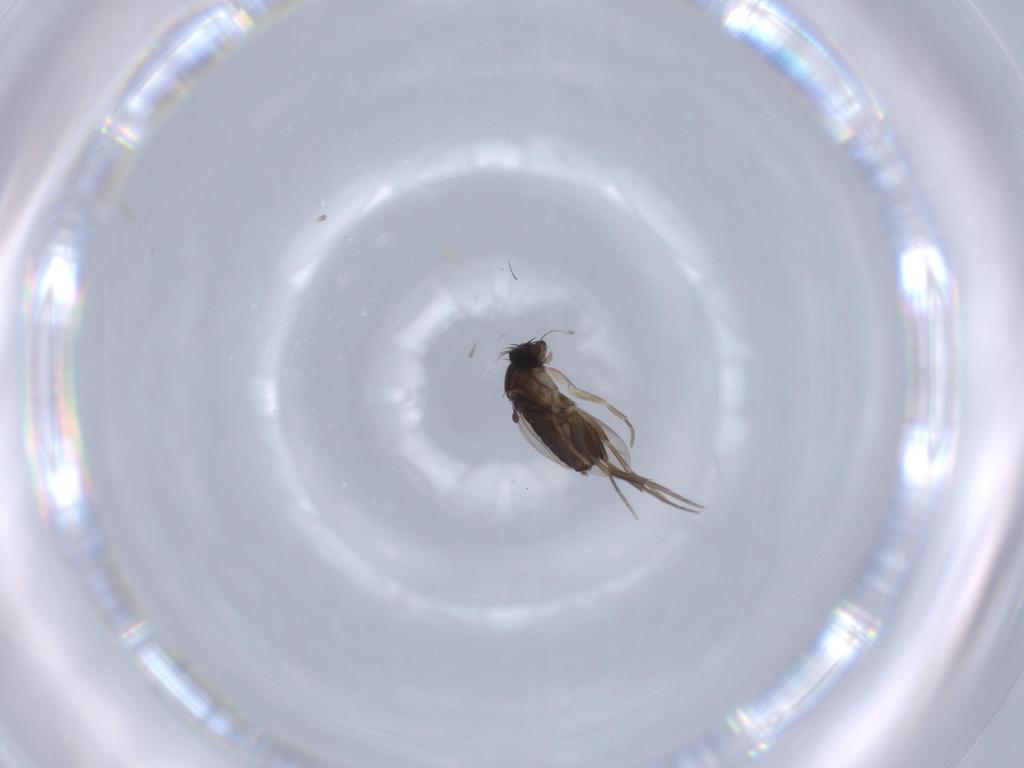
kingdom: Animalia
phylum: Arthropoda
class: Insecta
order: Diptera
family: Phoridae
